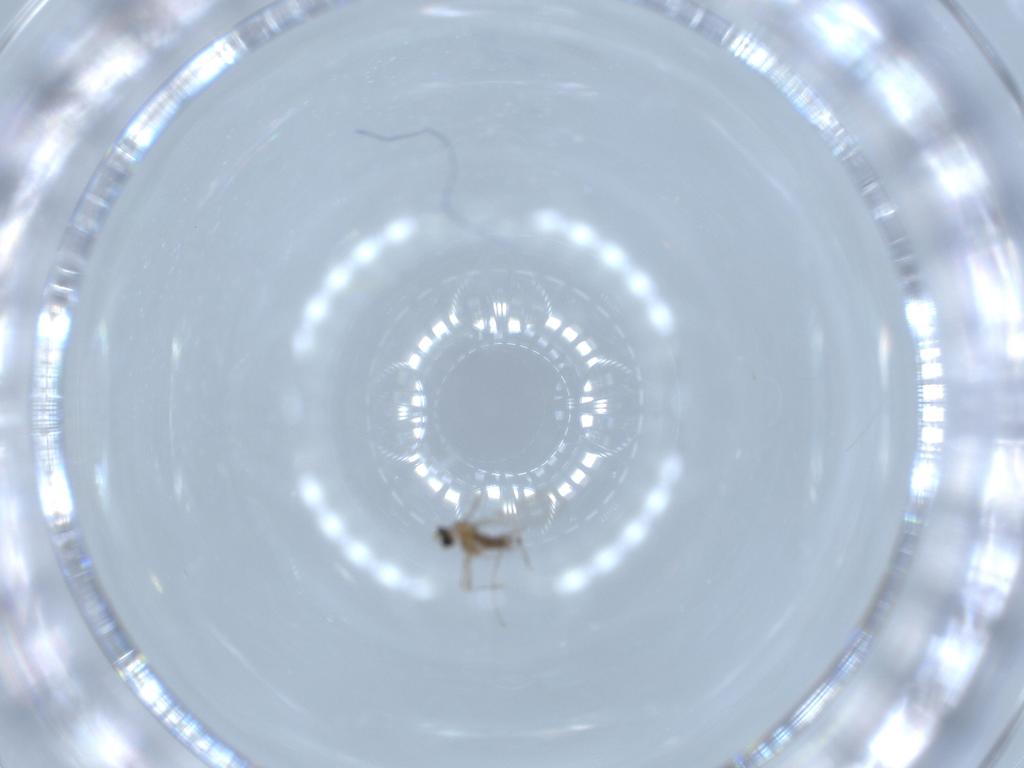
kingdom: Animalia
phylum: Arthropoda
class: Insecta
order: Diptera
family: Cecidomyiidae
